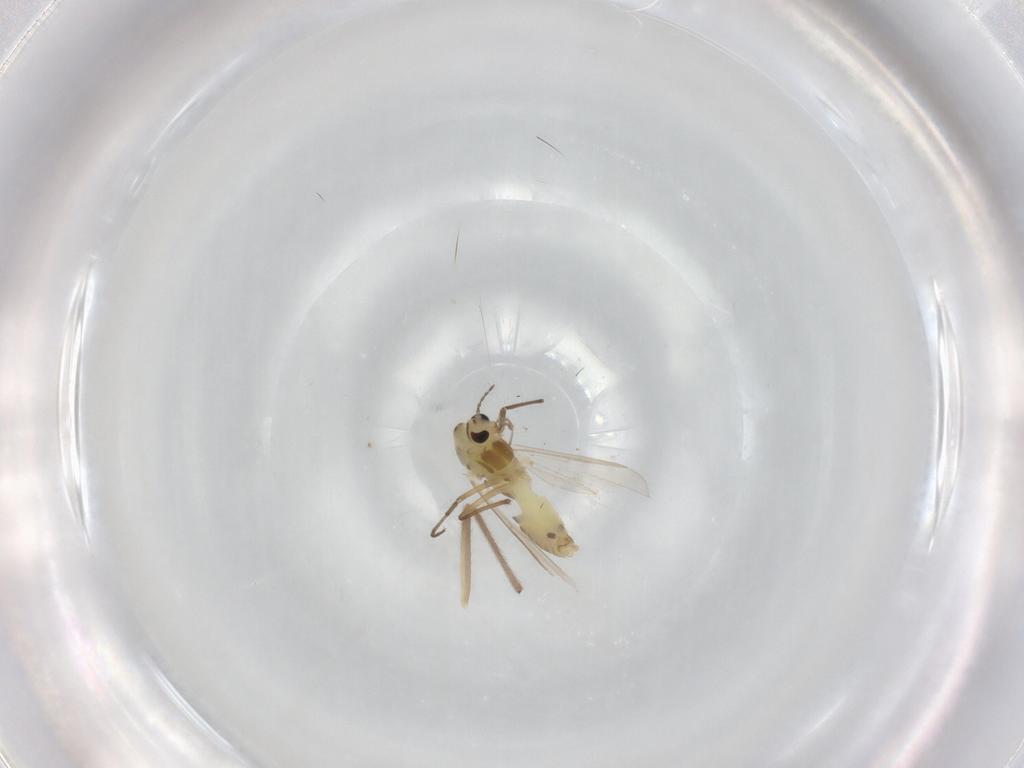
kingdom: Animalia
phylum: Arthropoda
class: Insecta
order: Diptera
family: Chironomidae
